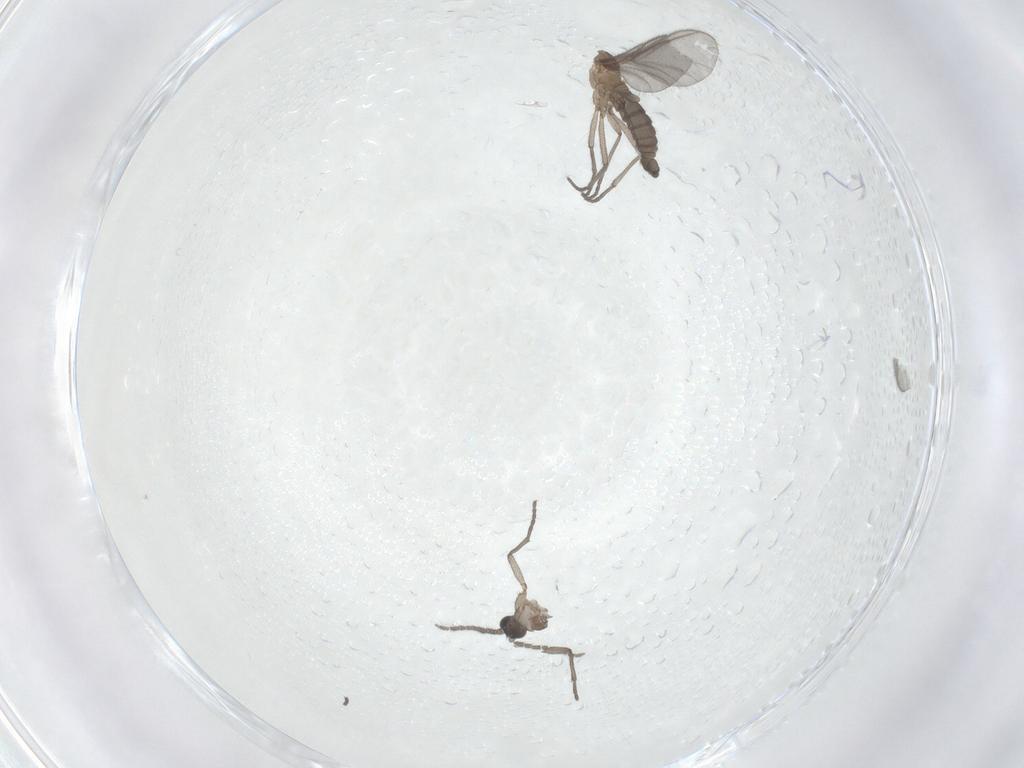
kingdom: Animalia
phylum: Arthropoda
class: Insecta
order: Diptera
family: Sciaridae
